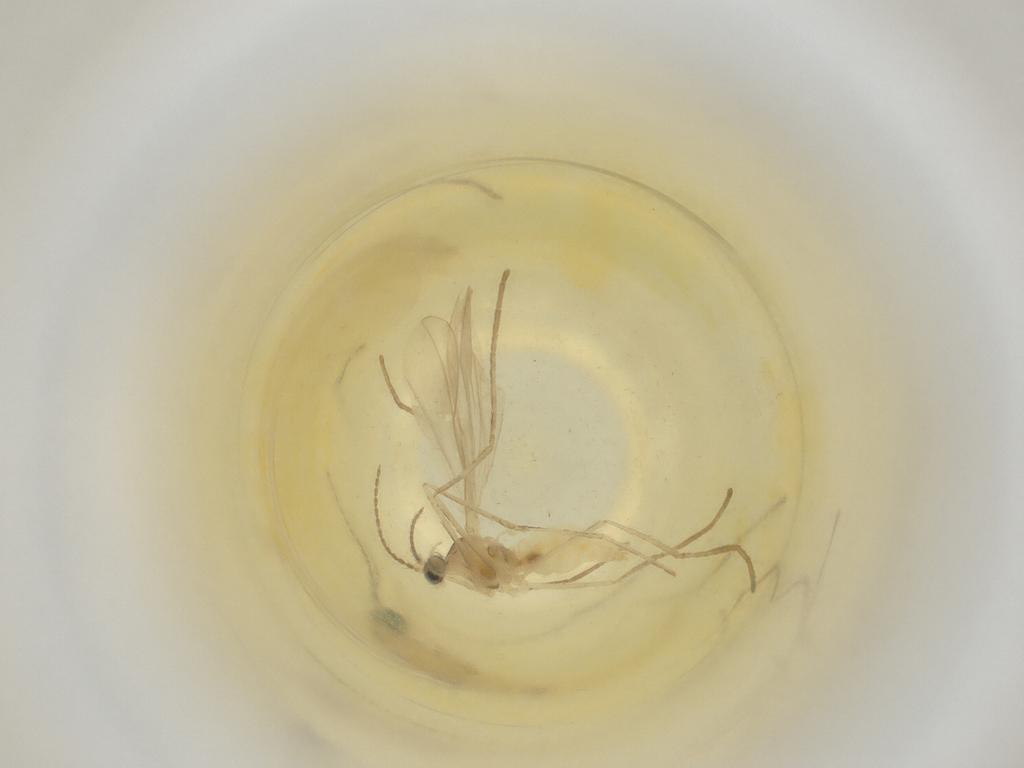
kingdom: Animalia
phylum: Arthropoda
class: Insecta
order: Diptera
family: Cecidomyiidae
